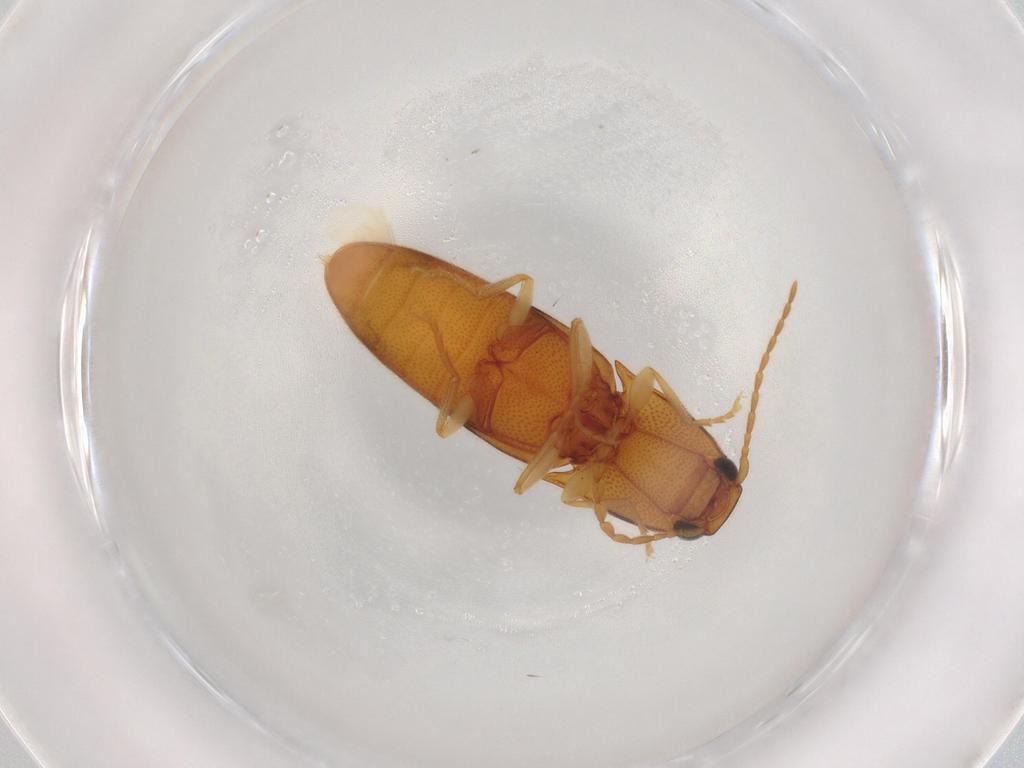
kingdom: Animalia
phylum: Arthropoda
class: Insecta
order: Coleoptera
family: Elateridae
